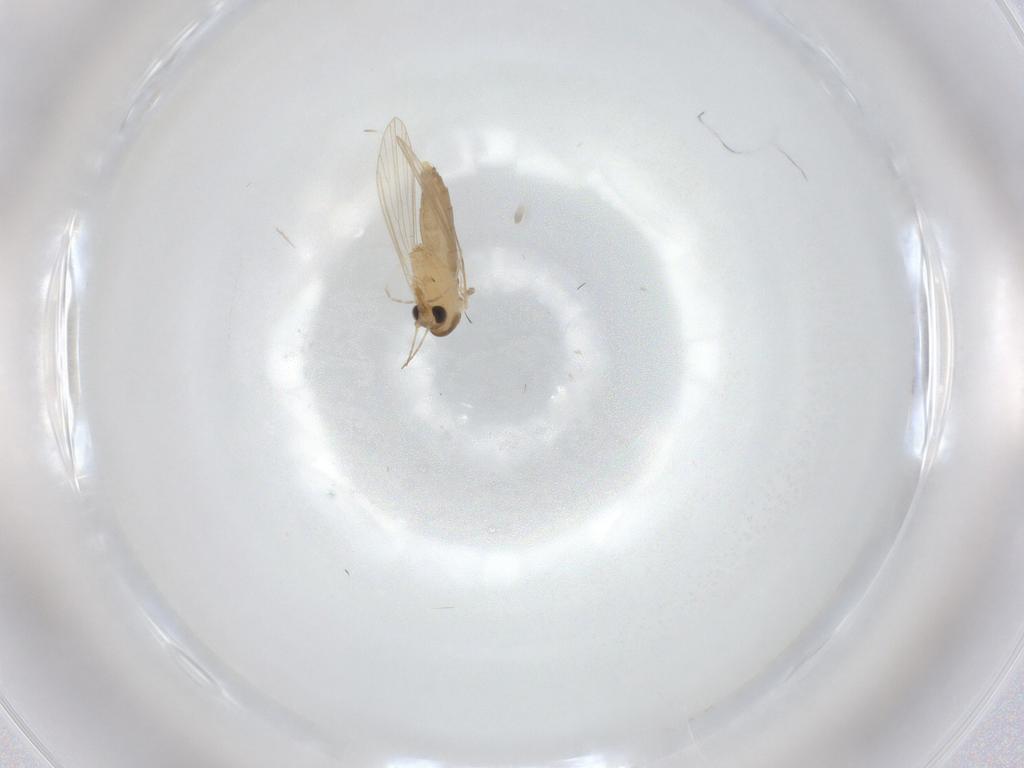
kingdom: Animalia
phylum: Arthropoda
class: Insecta
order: Diptera
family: Psychodidae
